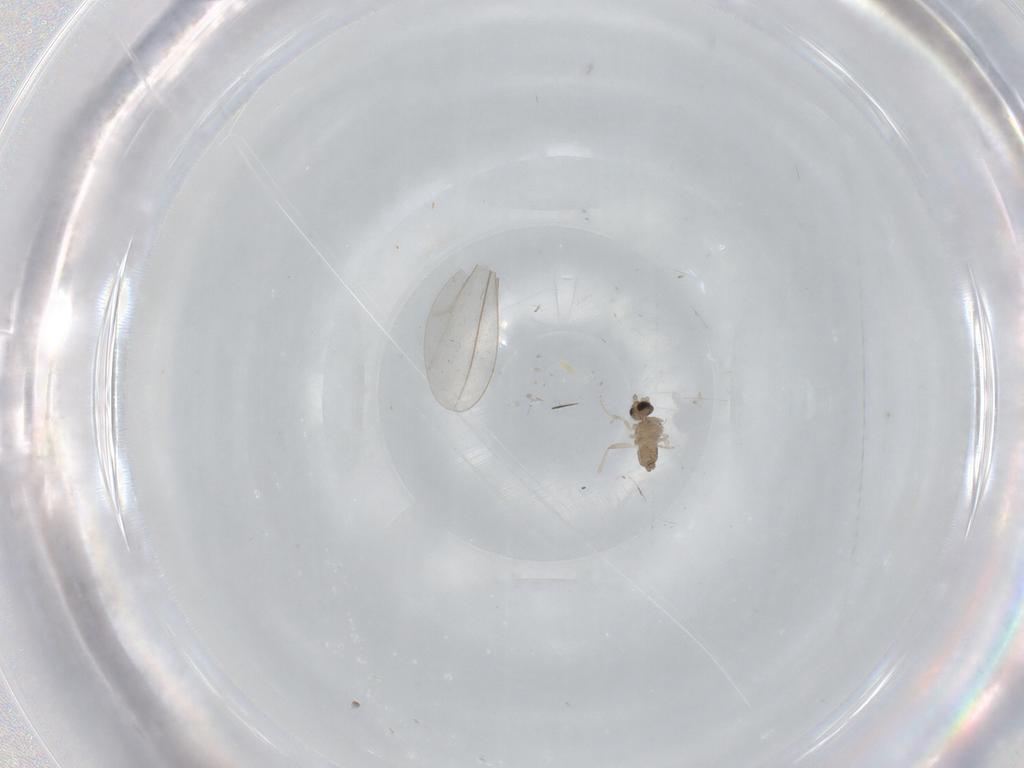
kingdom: Animalia
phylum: Arthropoda
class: Insecta
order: Diptera
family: Cecidomyiidae
